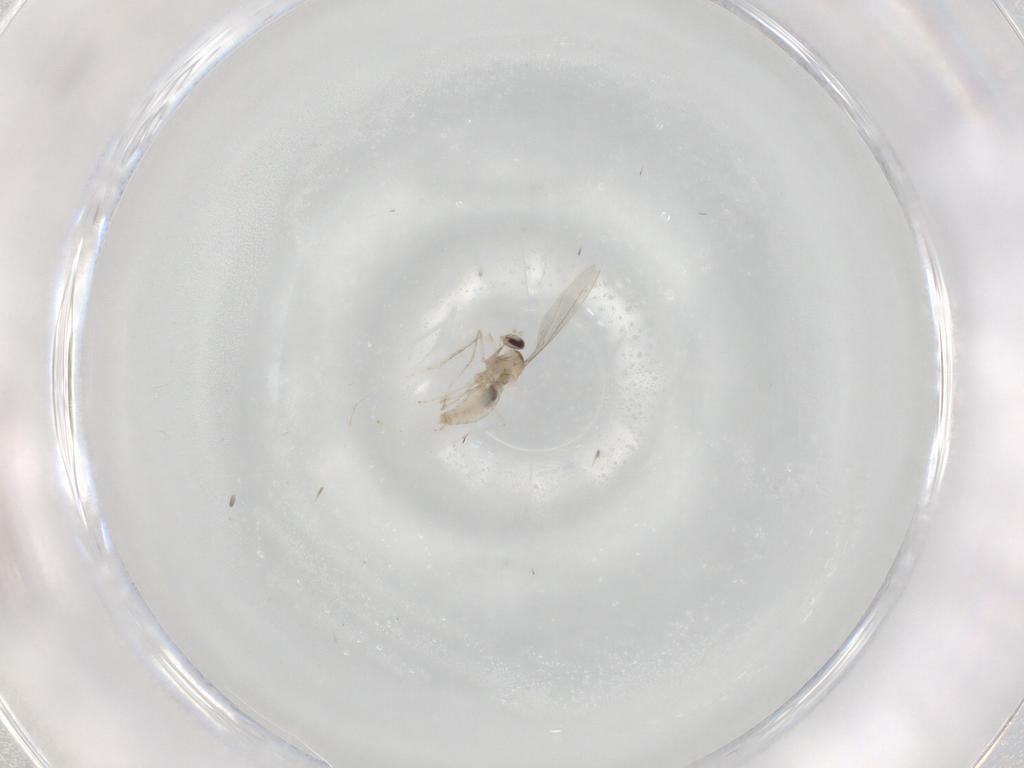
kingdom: Animalia
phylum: Arthropoda
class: Insecta
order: Diptera
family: Cecidomyiidae
